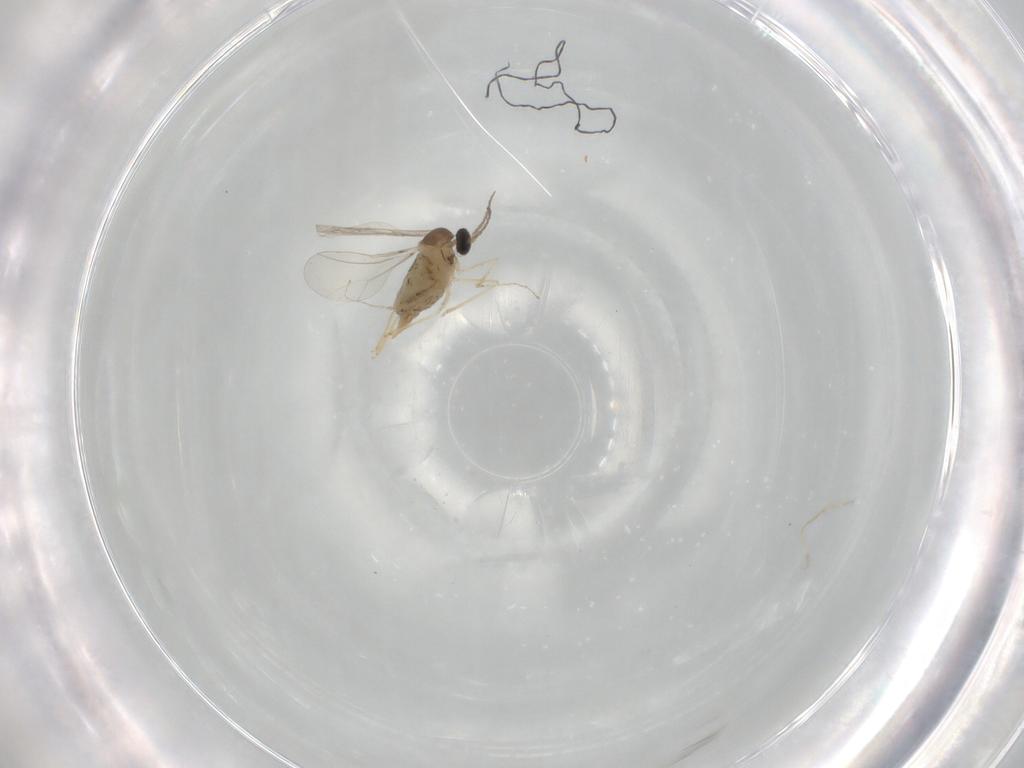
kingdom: Animalia
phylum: Arthropoda
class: Insecta
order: Diptera
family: Cecidomyiidae
